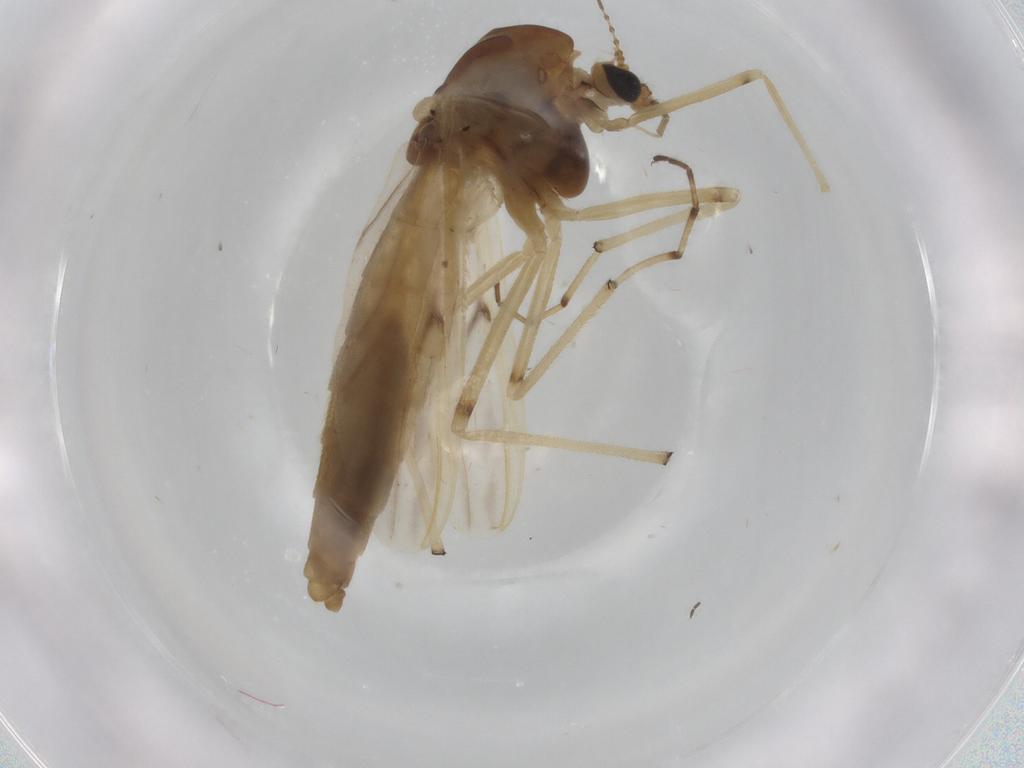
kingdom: Animalia
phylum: Arthropoda
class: Insecta
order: Diptera
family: Chironomidae
